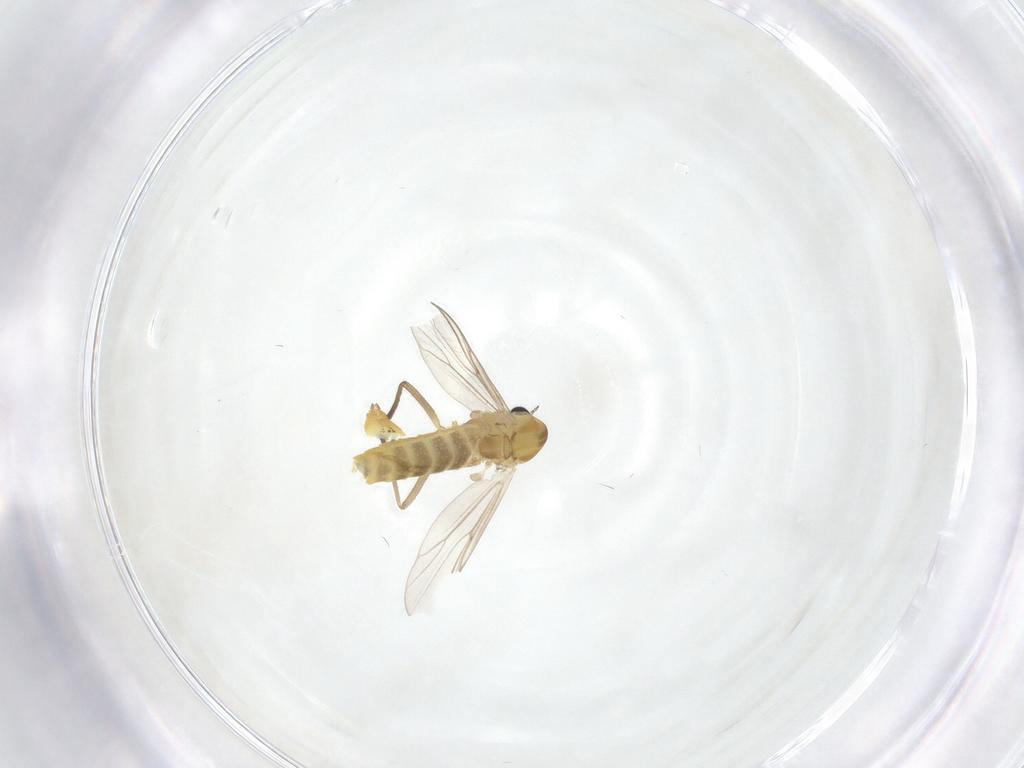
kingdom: Animalia
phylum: Arthropoda
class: Insecta
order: Diptera
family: Chironomidae
